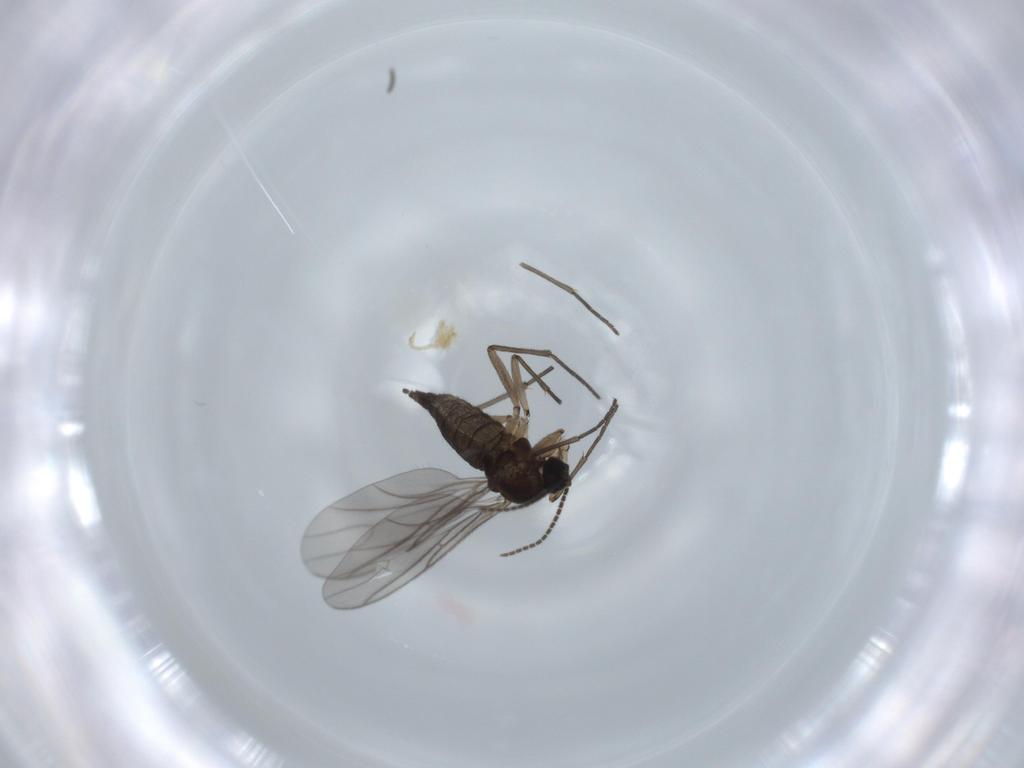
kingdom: Animalia
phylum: Arthropoda
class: Insecta
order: Diptera
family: Sciaridae
